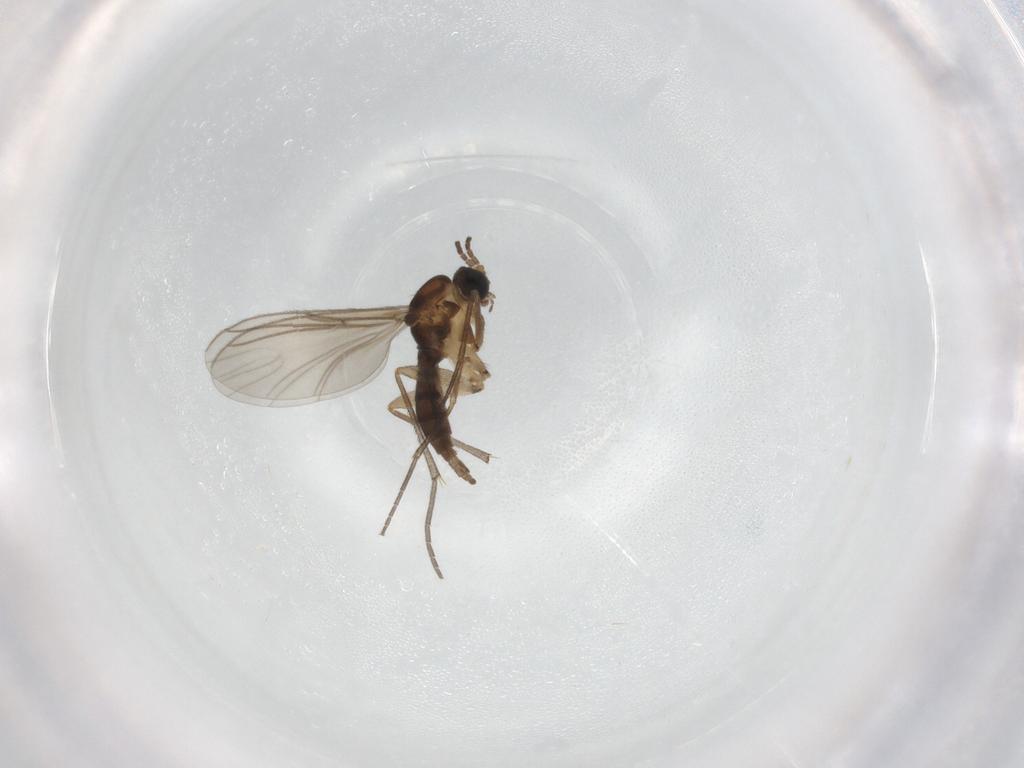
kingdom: Animalia
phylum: Arthropoda
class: Insecta
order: Diptera
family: Sciaridae
